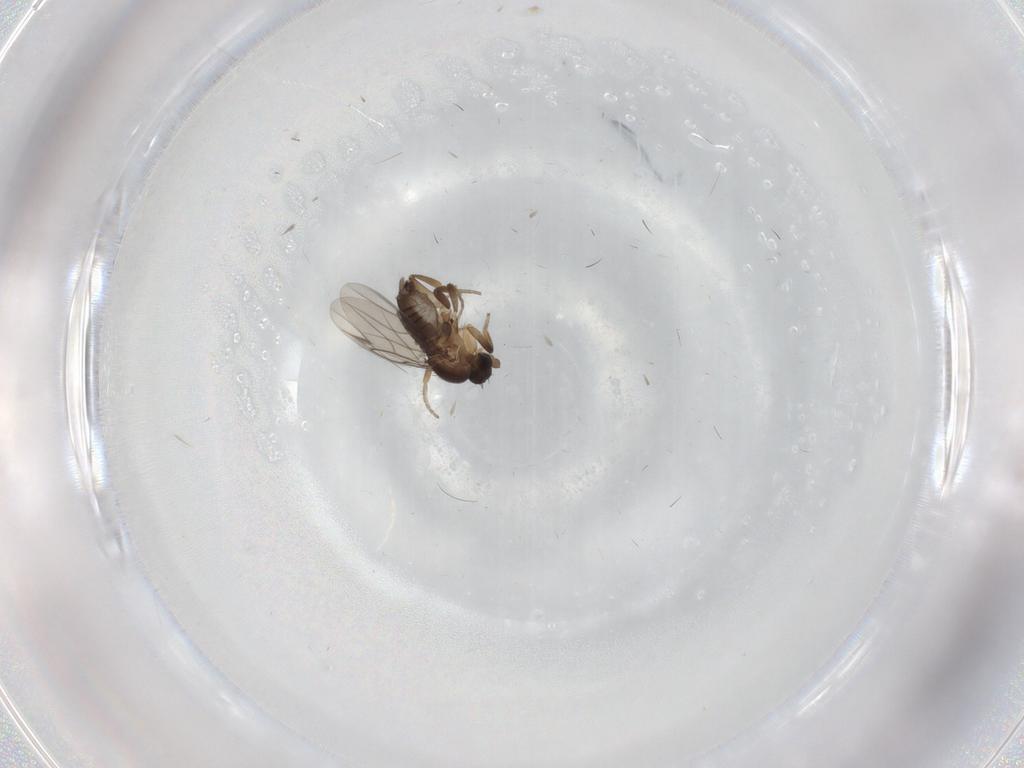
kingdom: Animalia
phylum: Arthropoda
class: Insecta
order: Diptera
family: Cecidomyiidae
